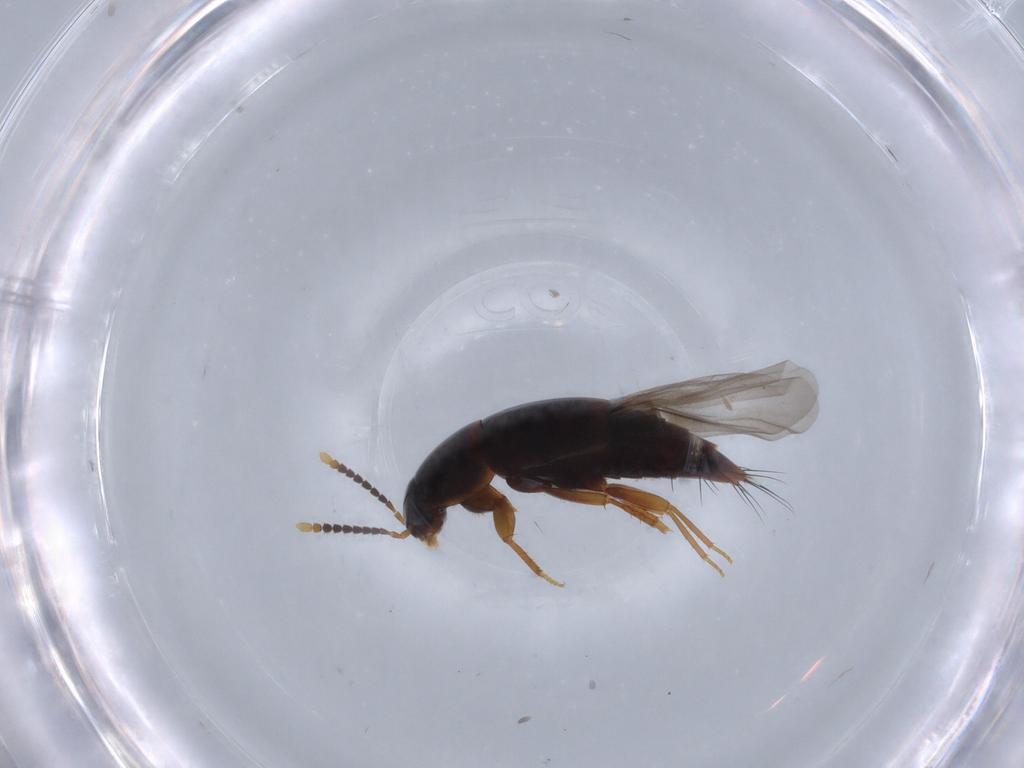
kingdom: Animalia
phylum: Arthropoda
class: Insecta
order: Coleoptera
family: Staphylinidae
